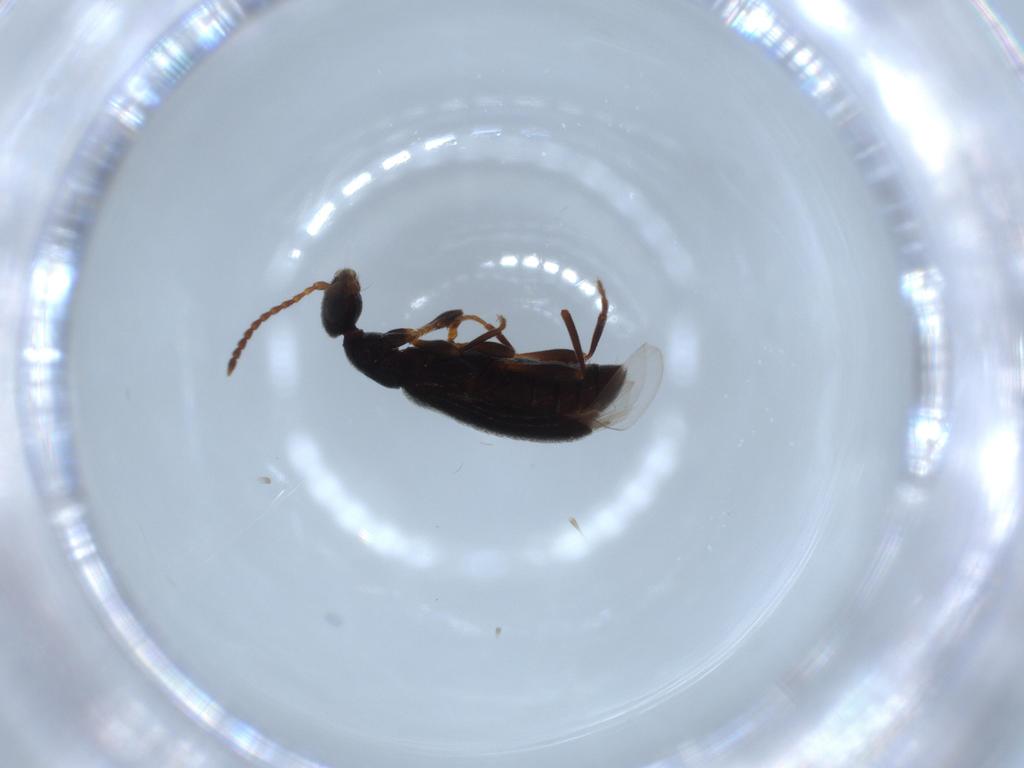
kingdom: Animalia
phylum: Arthropoda
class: Insecta
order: Coleoptera
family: Anthicidae
